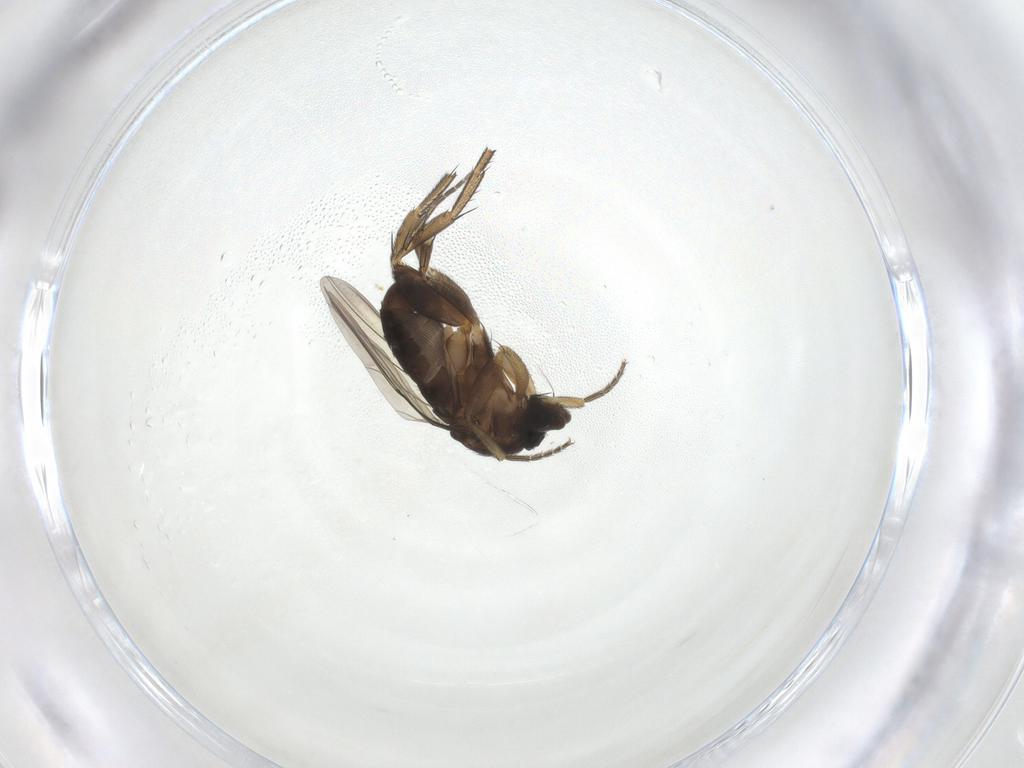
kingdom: Animalia
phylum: Arthropoda
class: Insecta
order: Diptera
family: Phoridae
